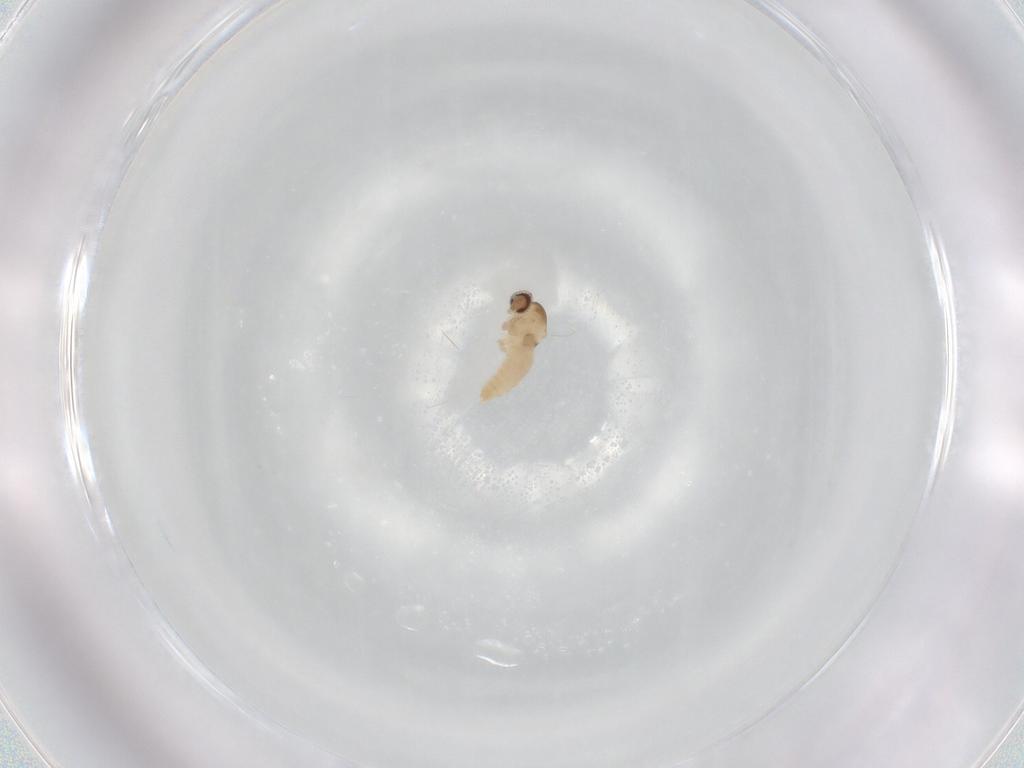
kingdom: Animalia
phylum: Arthropoda
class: Insecta
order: Diptera
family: Cecidomyiidae
